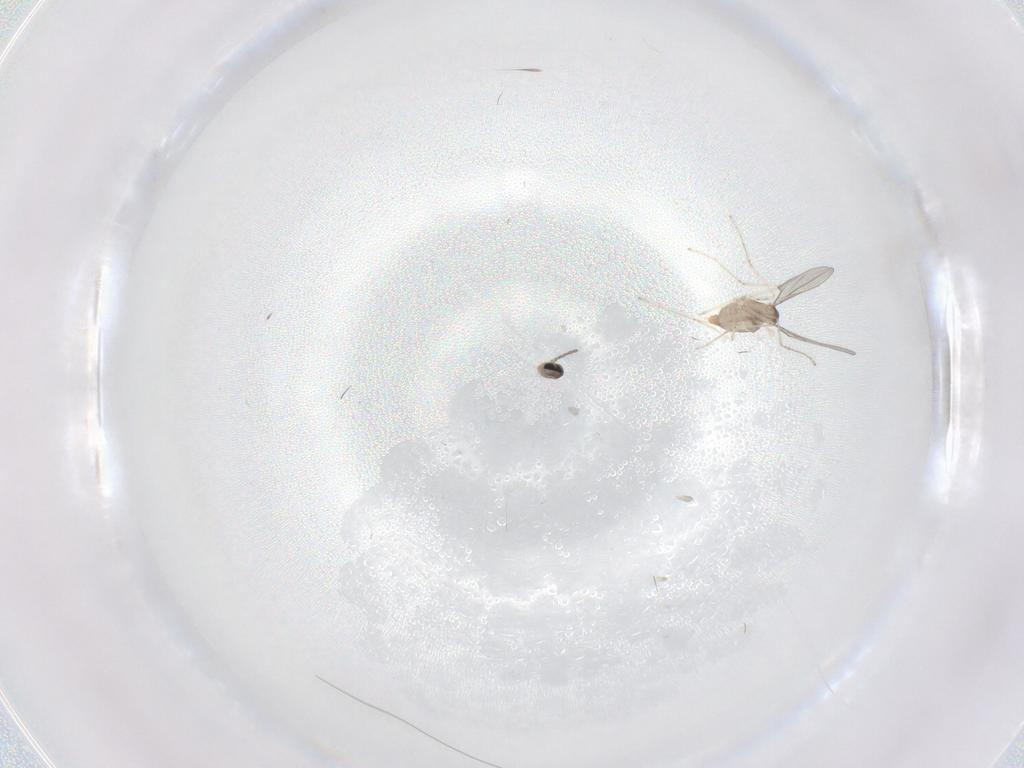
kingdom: Animalia
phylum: Arthropoda
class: Insecta
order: Diptera
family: Cecidomyiidae
